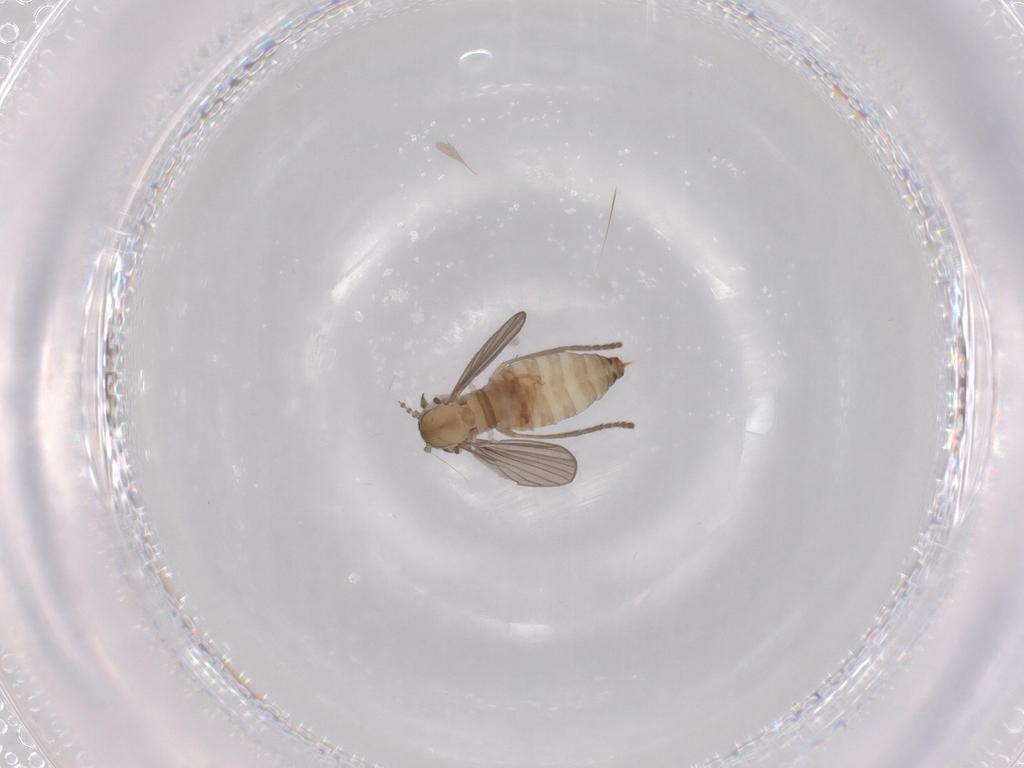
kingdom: Animalia
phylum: Arthropoda
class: Insecta
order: Diptera
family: Psychodidae
